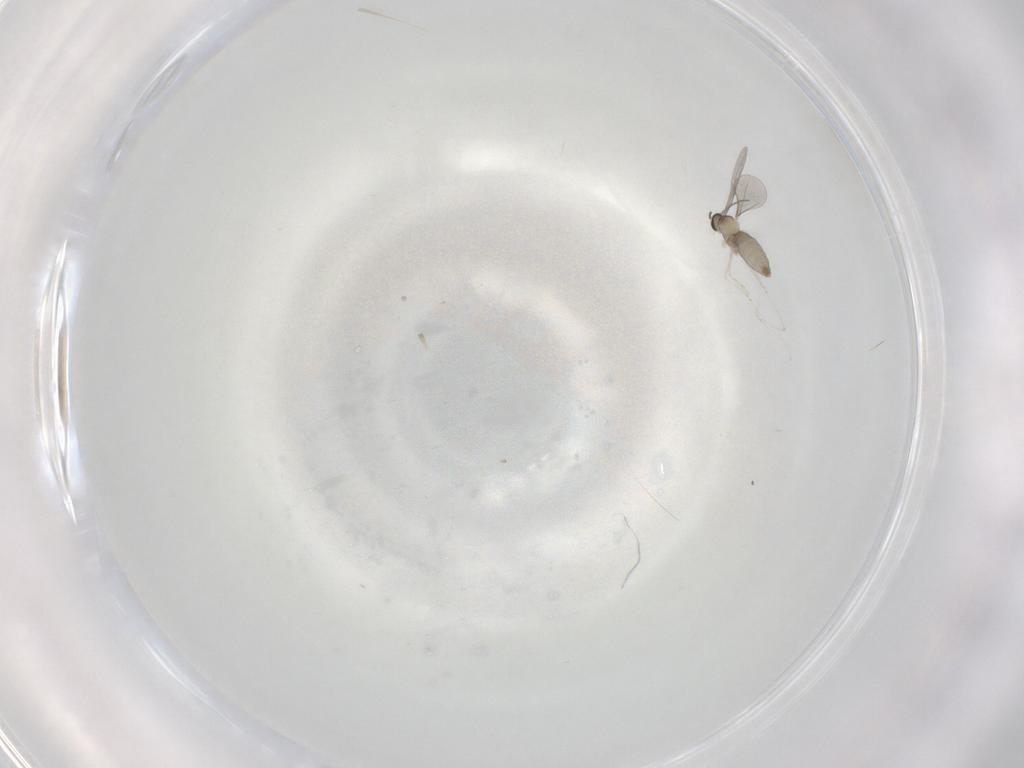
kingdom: Animalia
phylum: Arthropoda
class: Insecta
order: Diptera
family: Cecidomyiidae
